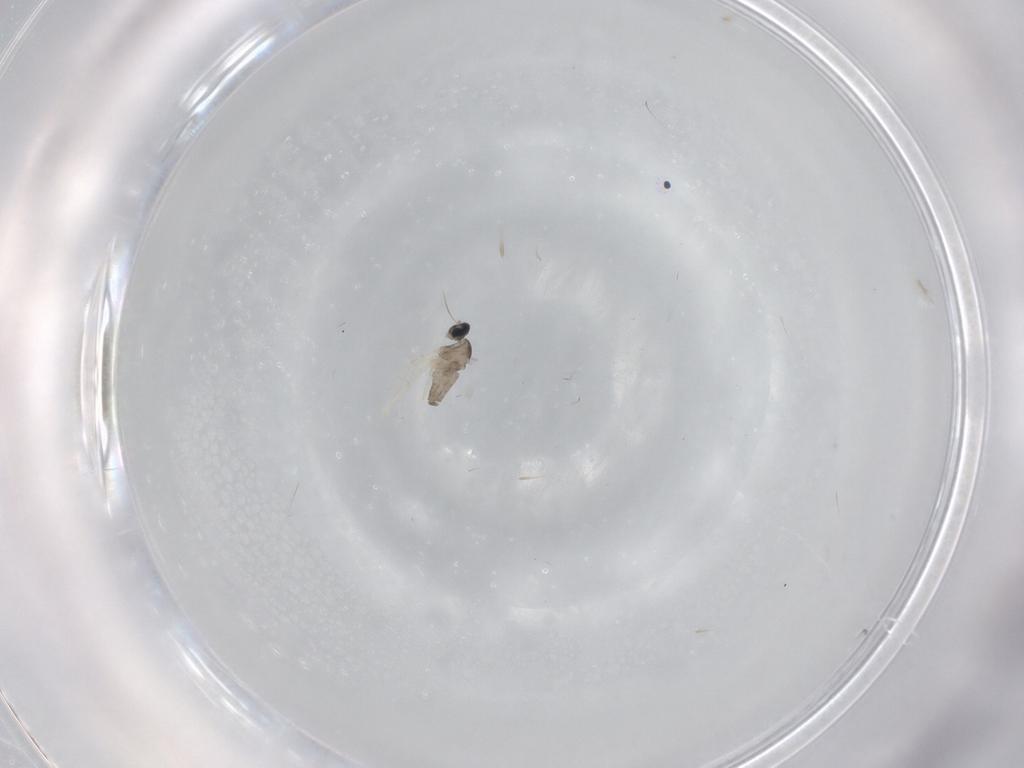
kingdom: Animalia
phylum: Arthropoda
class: Insecta
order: Diptera
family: Cecidomyiidae
